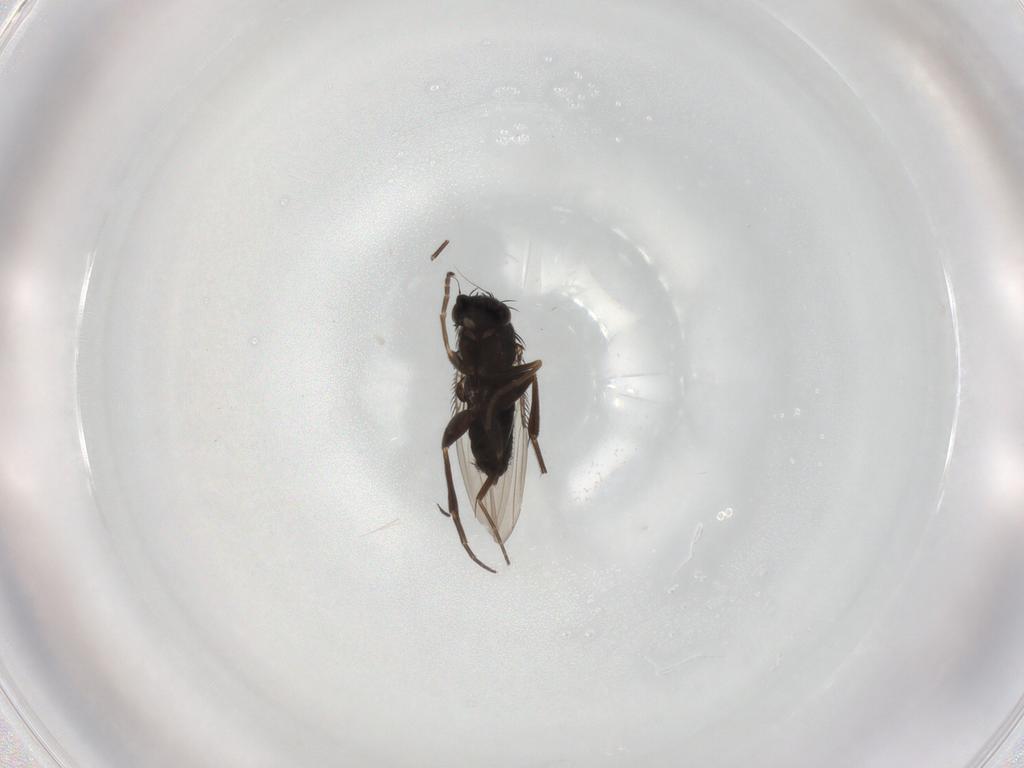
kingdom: Animalia
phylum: Arthropoda
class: Insecta
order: Diptera
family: Phoridae
